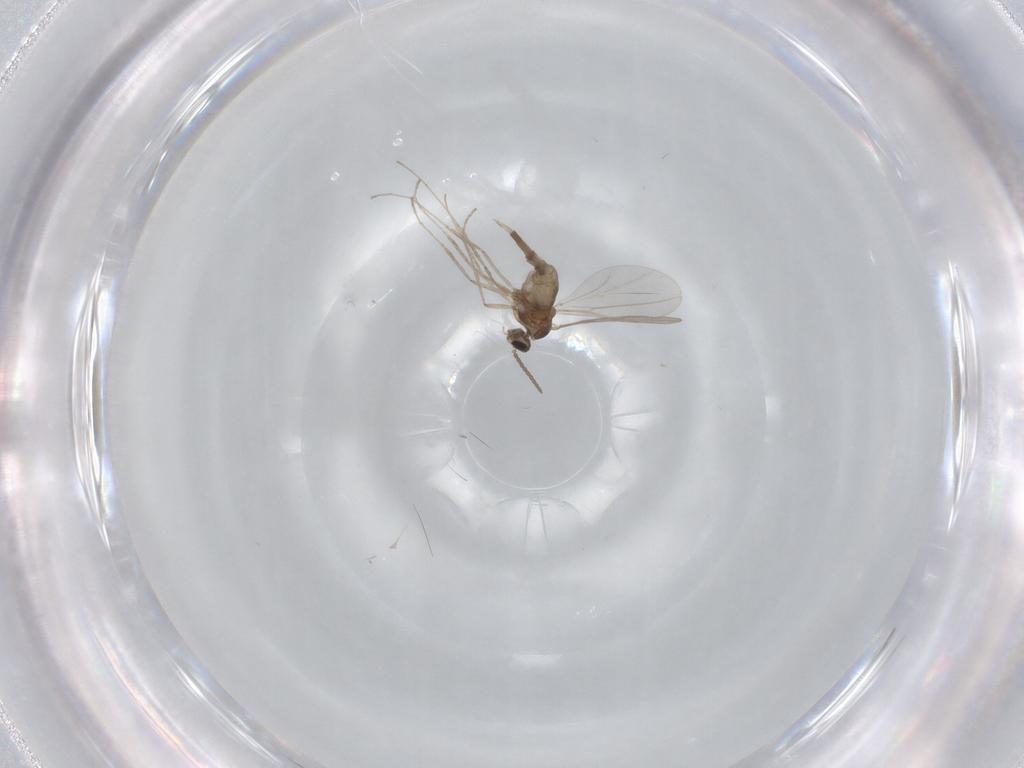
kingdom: Animalia
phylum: Arthropoda
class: Insecta
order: Diptera
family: Cecidomyiidae
